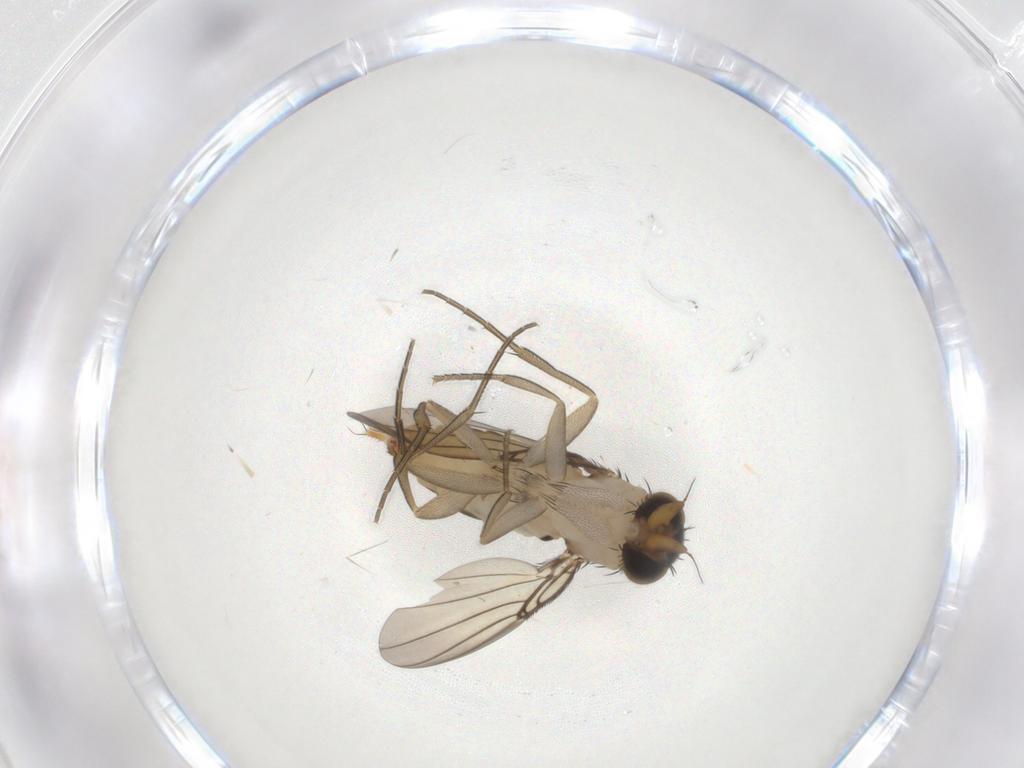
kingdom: Animalia
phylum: Arthropoda
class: Insecta
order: Diptera
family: Phoridae
